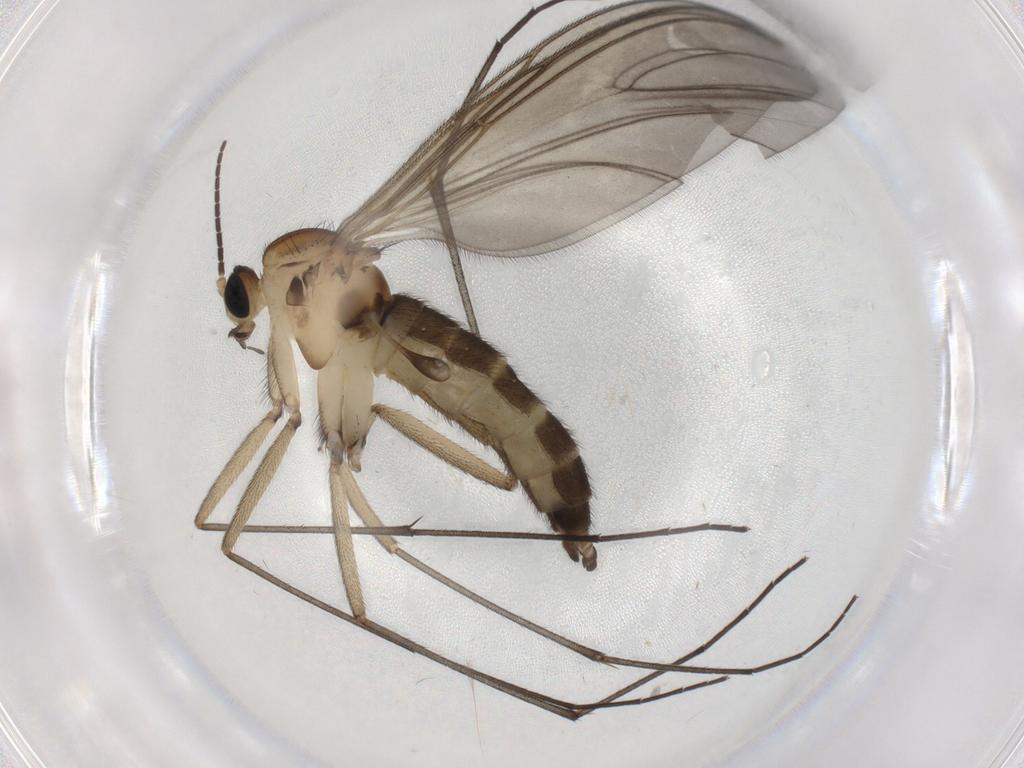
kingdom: Animalia
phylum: Arthropoda
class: Insecta
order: Diptera
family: Sciaridae
